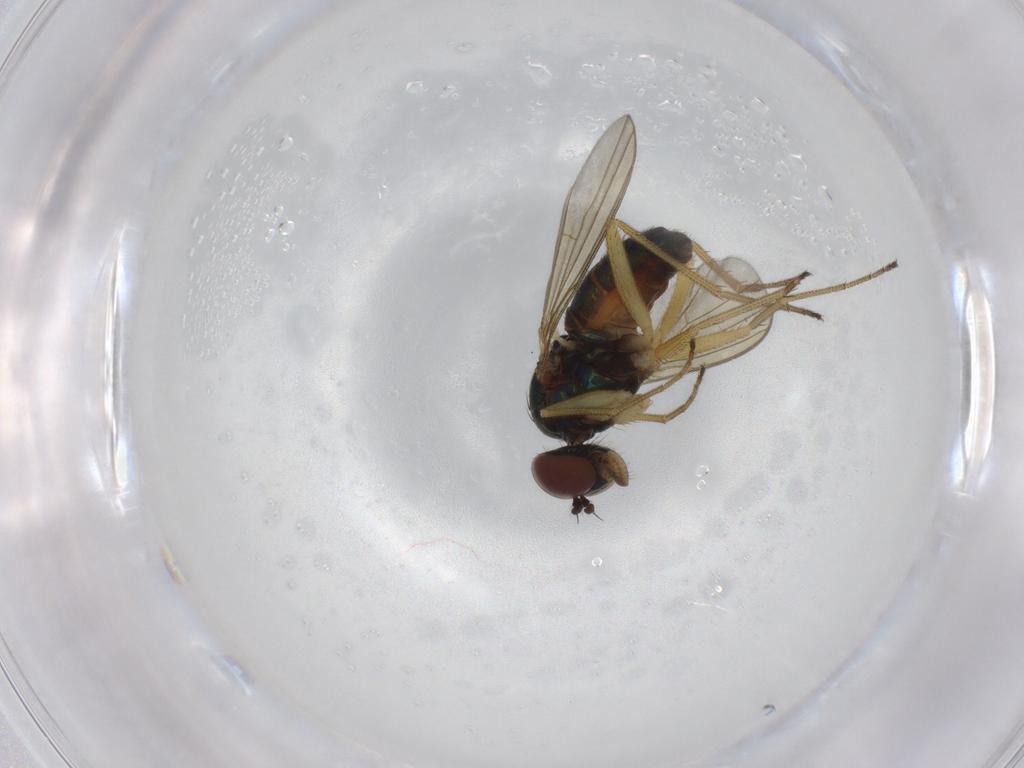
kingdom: Animalia
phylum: Arthropoda
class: Insecta
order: Diptera
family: Dolichopodidae
